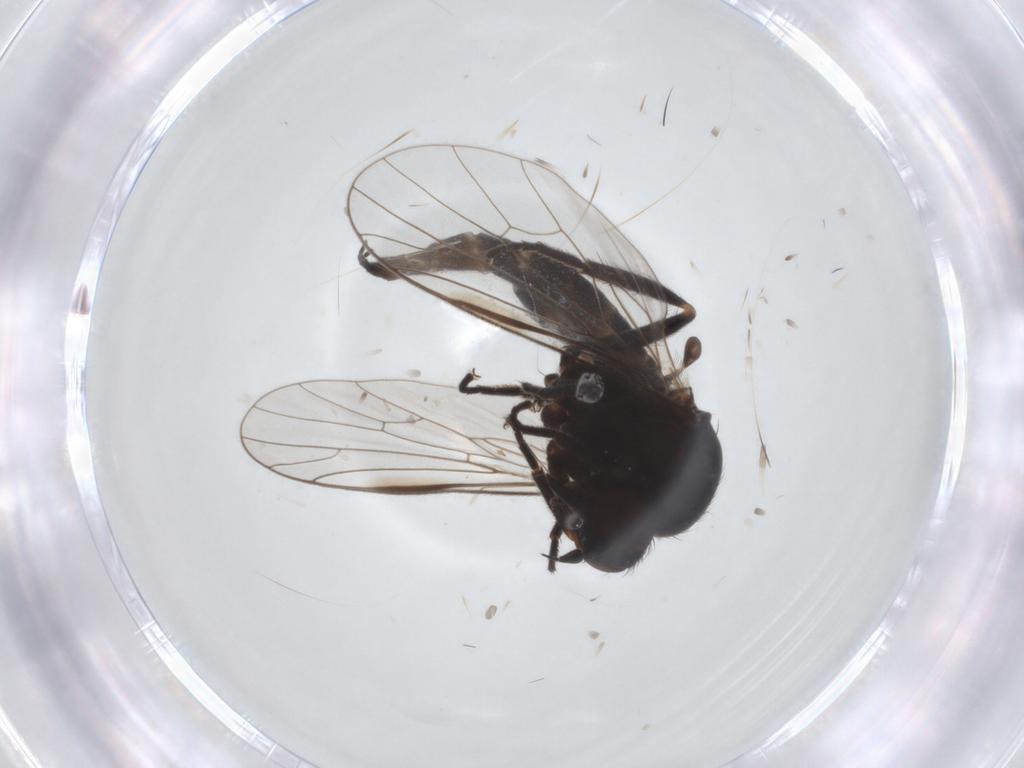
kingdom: Animalia
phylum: Arthropoda
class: Insecta
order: Diptera
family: Empididae
